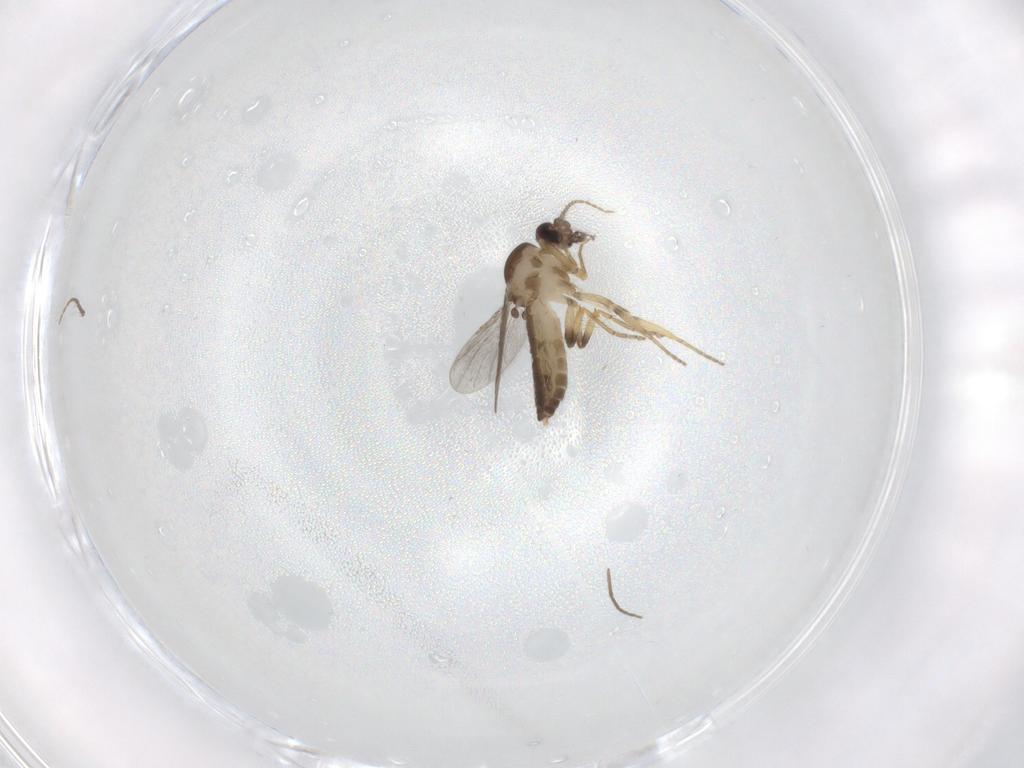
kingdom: Animalia
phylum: Arthropoda
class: Insecta
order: Diptera
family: Ceratopogonidae
